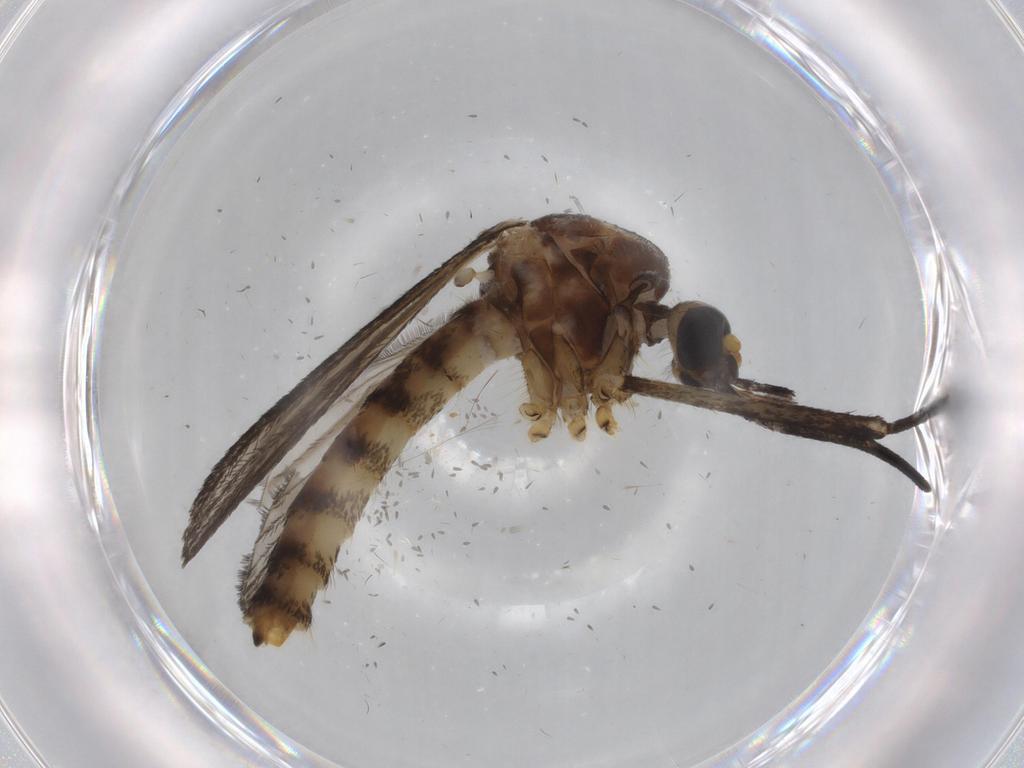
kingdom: Animalia
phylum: Arthropoda
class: Insecta
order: Diptera
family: Sciaridae
